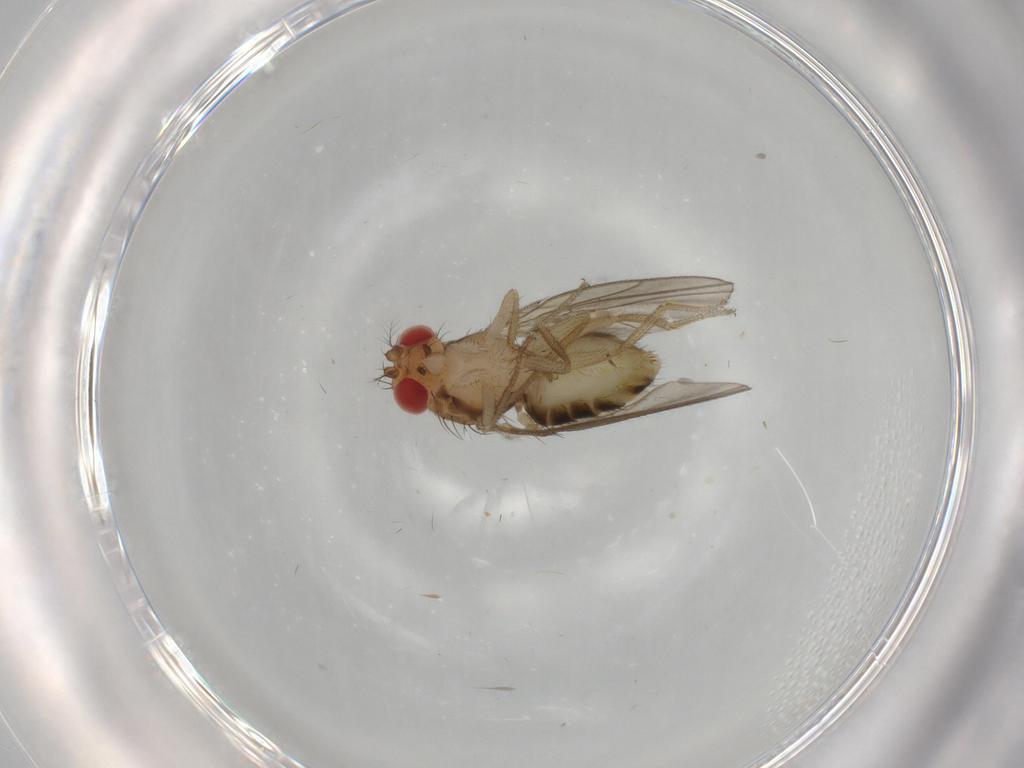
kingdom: Animalia
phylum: Arthropoda
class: Insecta
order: Diptera
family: Drosophilidae
